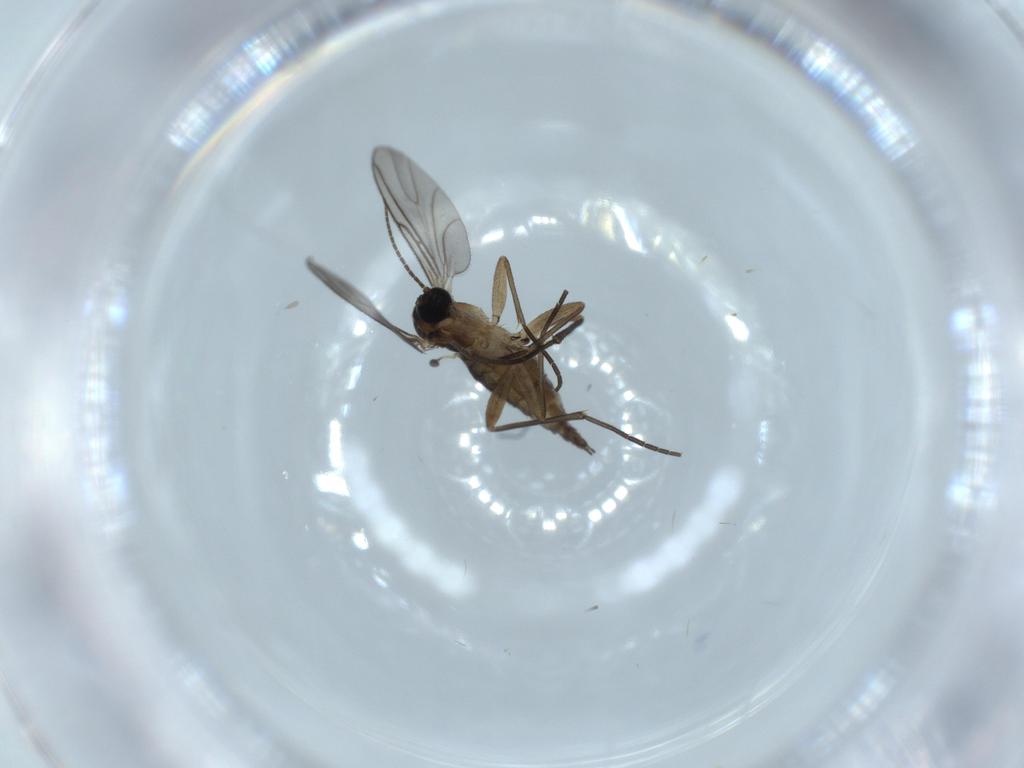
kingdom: Animalia
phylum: Arthropoda
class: Insecta
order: Diptera
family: Sciaridae
